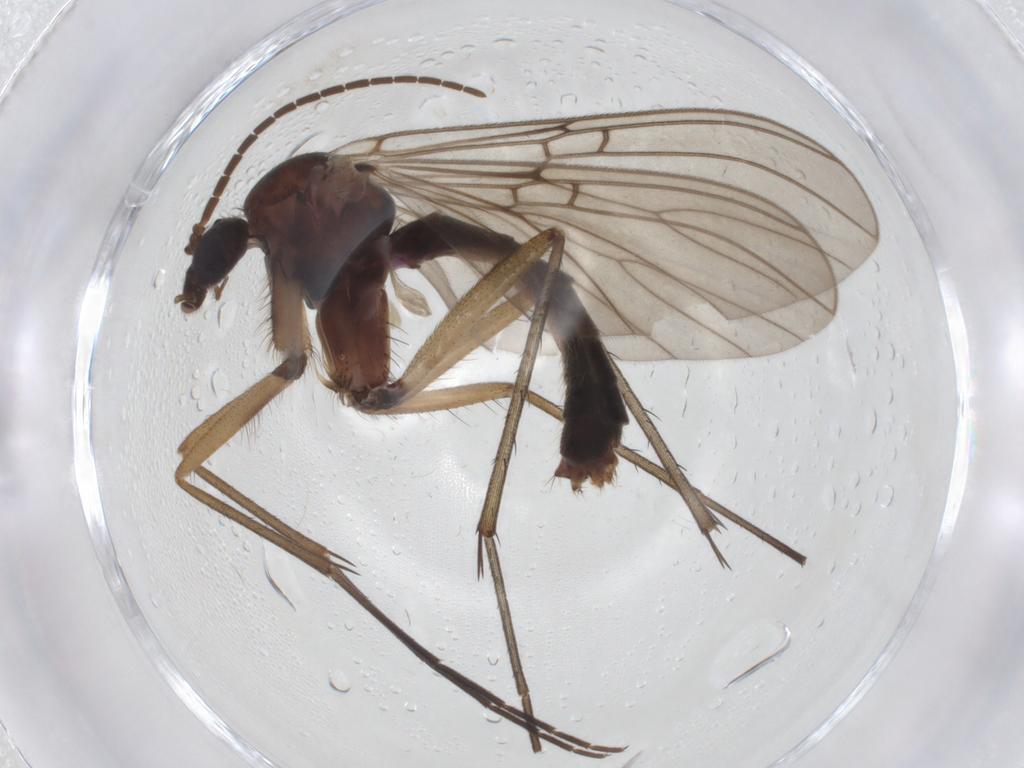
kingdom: Animalia
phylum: Arthropoda
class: Insecta
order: Diptera
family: Mycetophilidae
